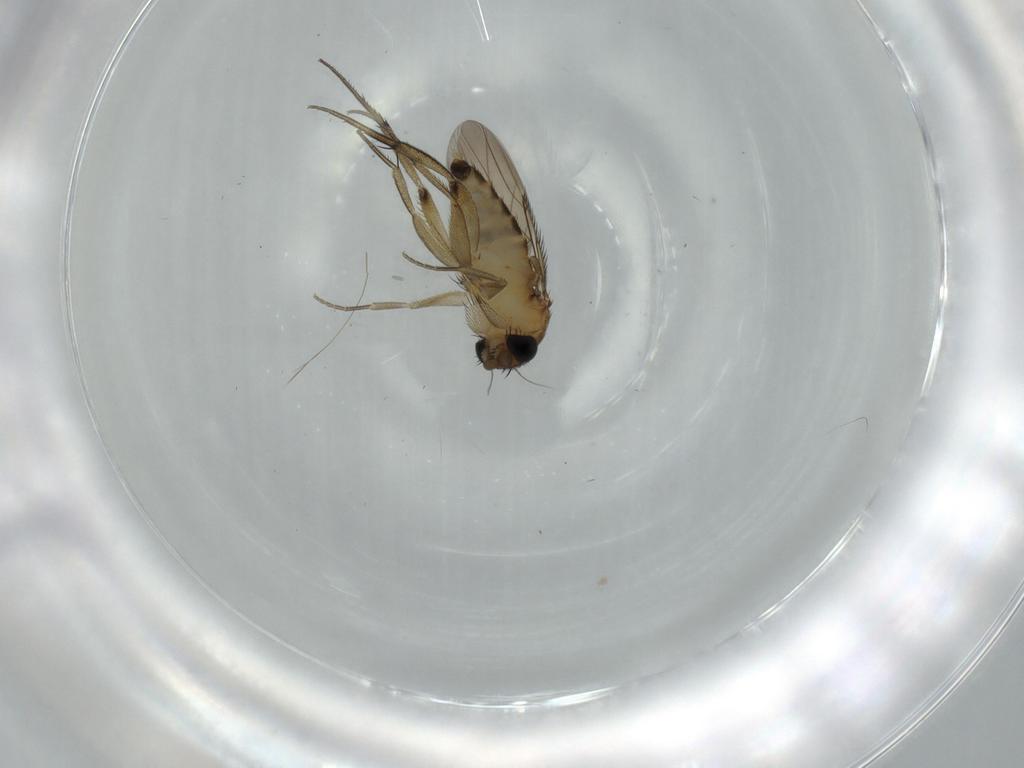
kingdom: Animalia
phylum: Arthropoda
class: Insecta
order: Diptera
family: Phoridae
